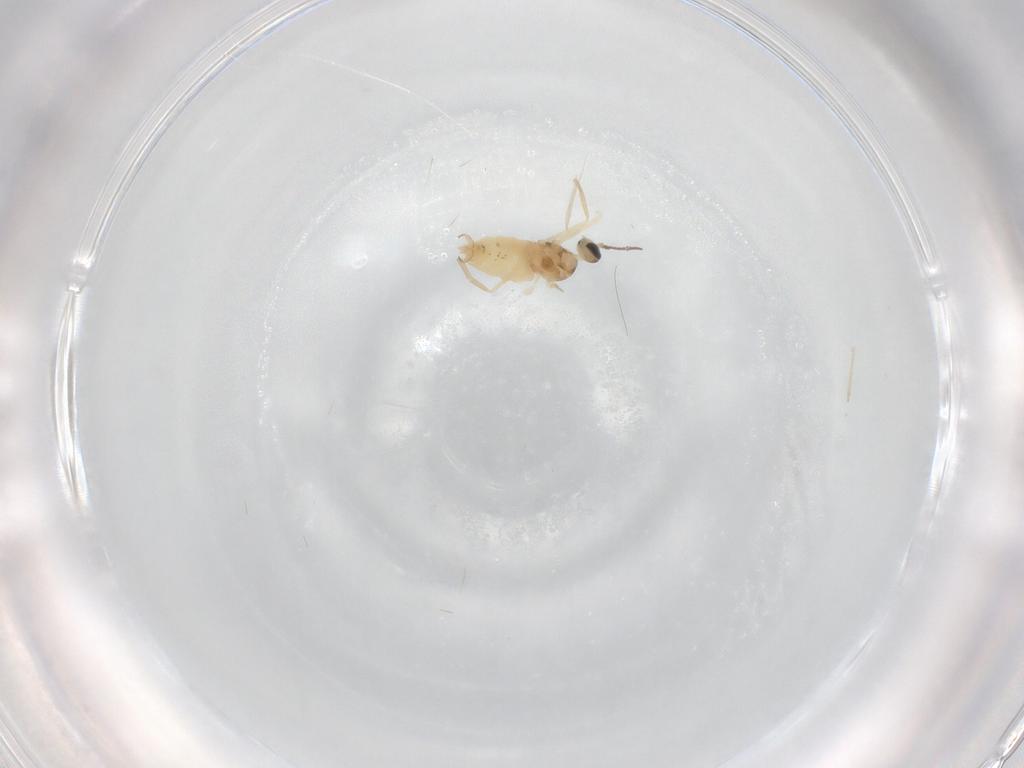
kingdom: Animalia
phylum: Arthropoda
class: Insecta
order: Diptera
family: Cecidomyiidae
